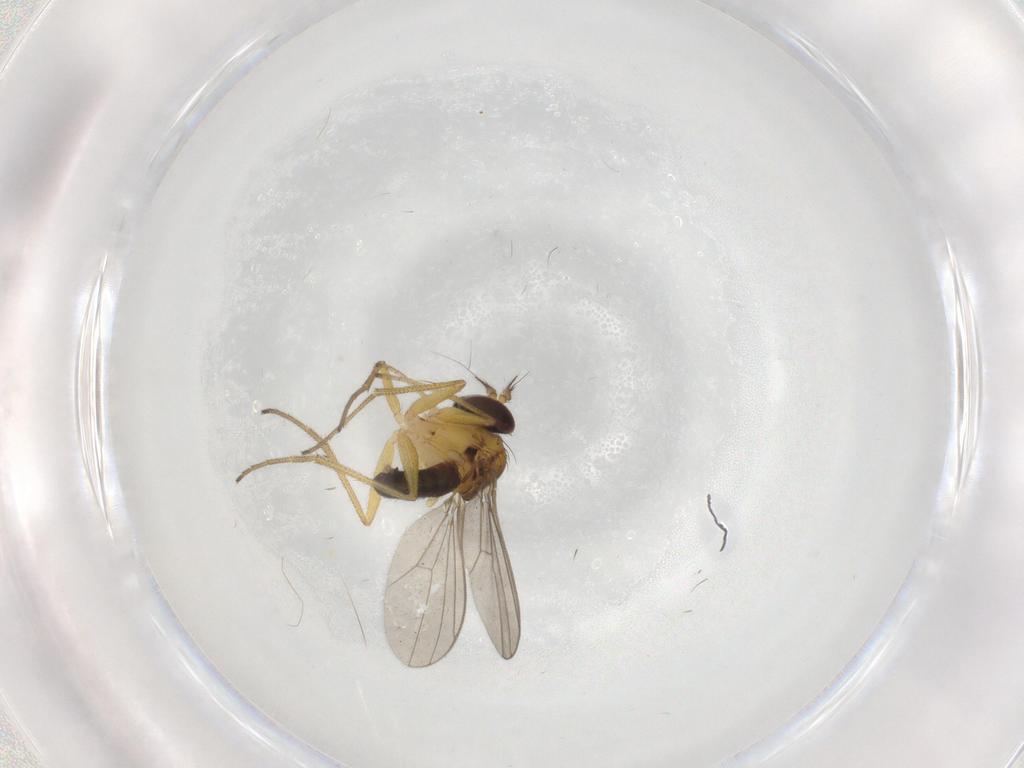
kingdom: Animalia
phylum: Arthropoda
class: Insecta
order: Diptera
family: Dolichopodidae
